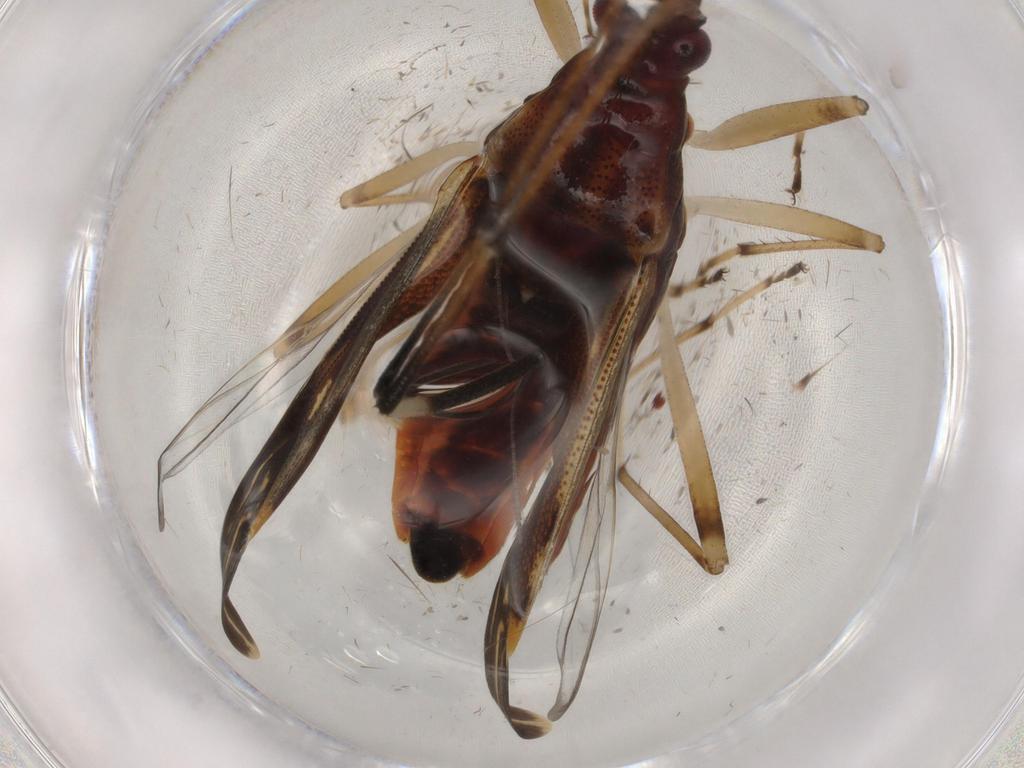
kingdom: Animalia
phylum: Arthropoda
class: Insecta
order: Hemiptera
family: Rhyparochromidae
